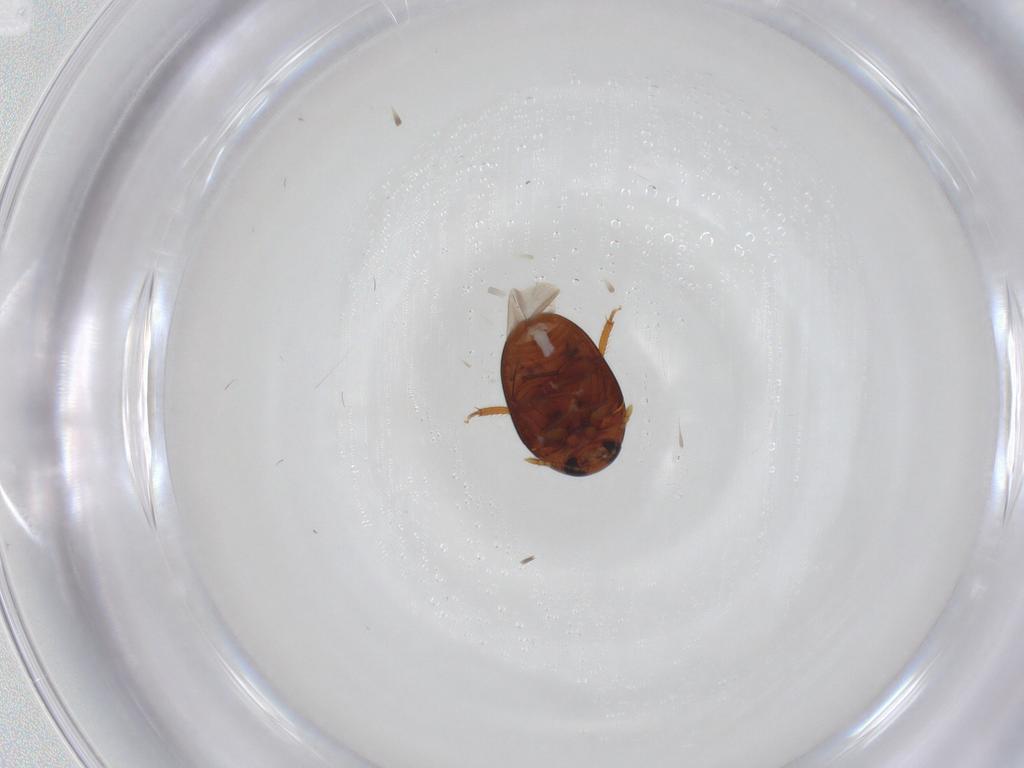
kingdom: Animalia
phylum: Arthropoda
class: Insecta
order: Coleoptera
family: Phalacridae
